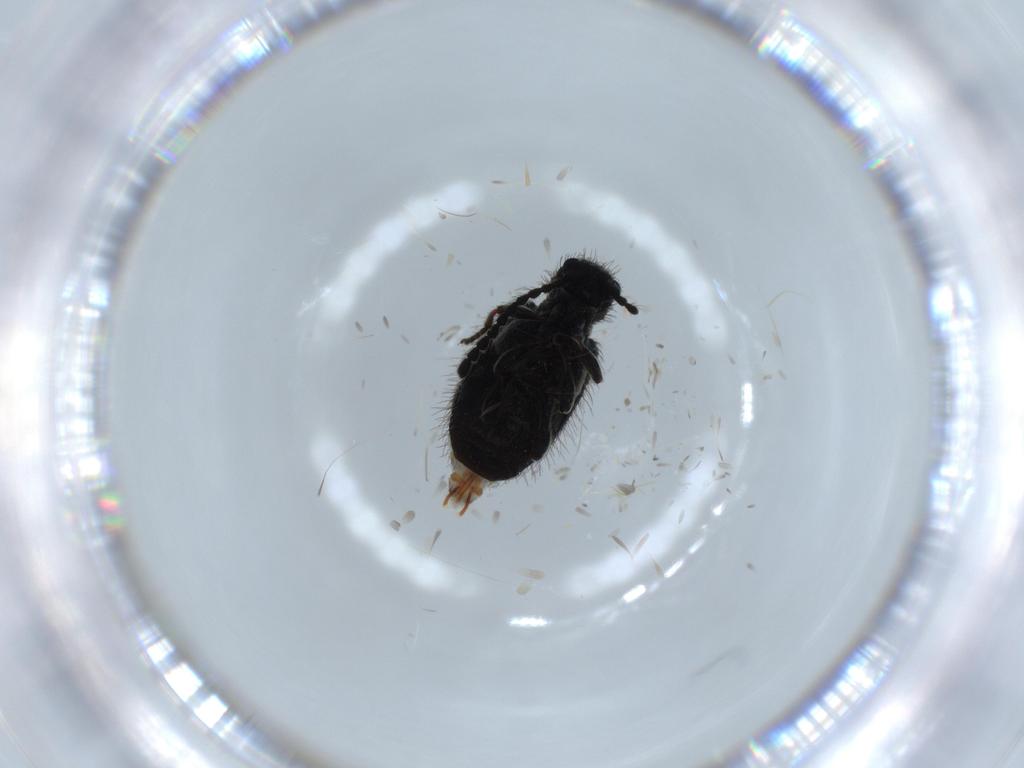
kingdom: Animalia
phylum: Arthropoda
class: Insecta
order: Coleoptera
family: Ptinidae
